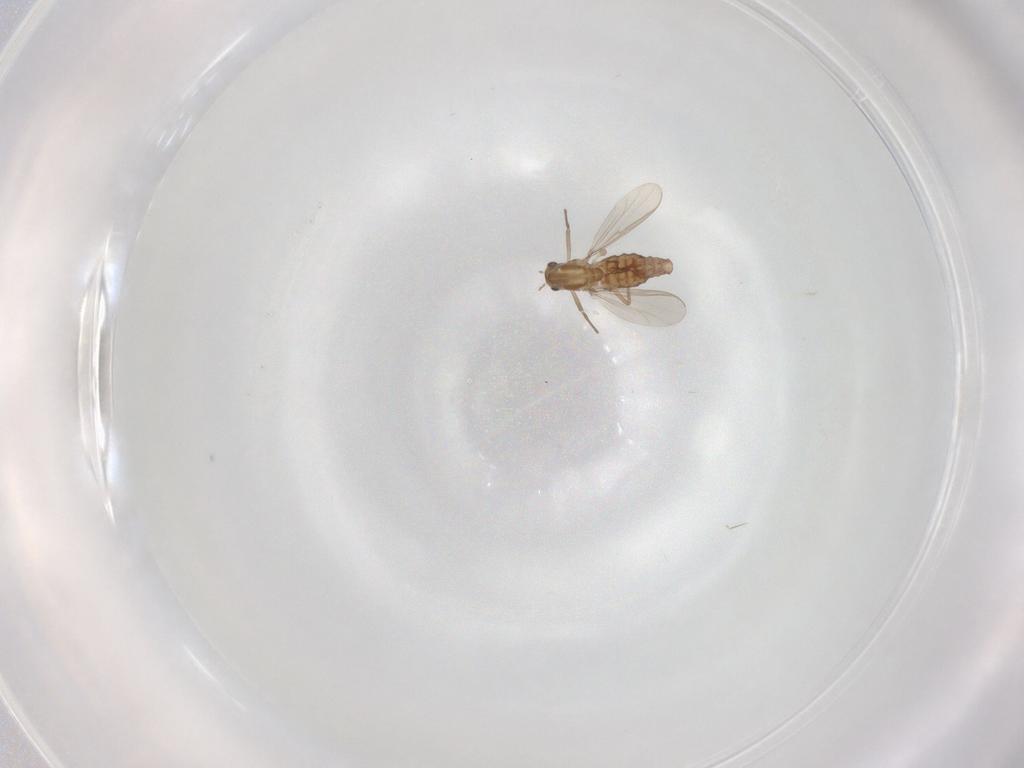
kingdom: Animalia
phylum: Arthropoda
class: Insecta
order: Diptera
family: Chironomidae
